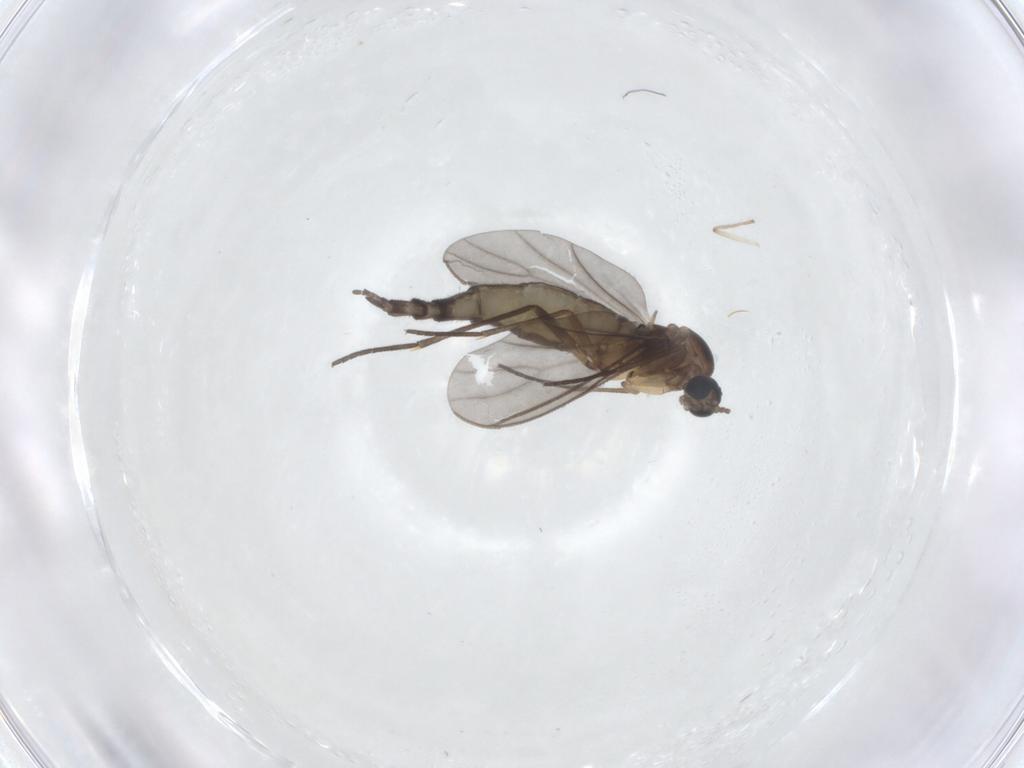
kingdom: Animalia
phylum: Arthropoda
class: Insecta
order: Diptera
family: Sciaridae
